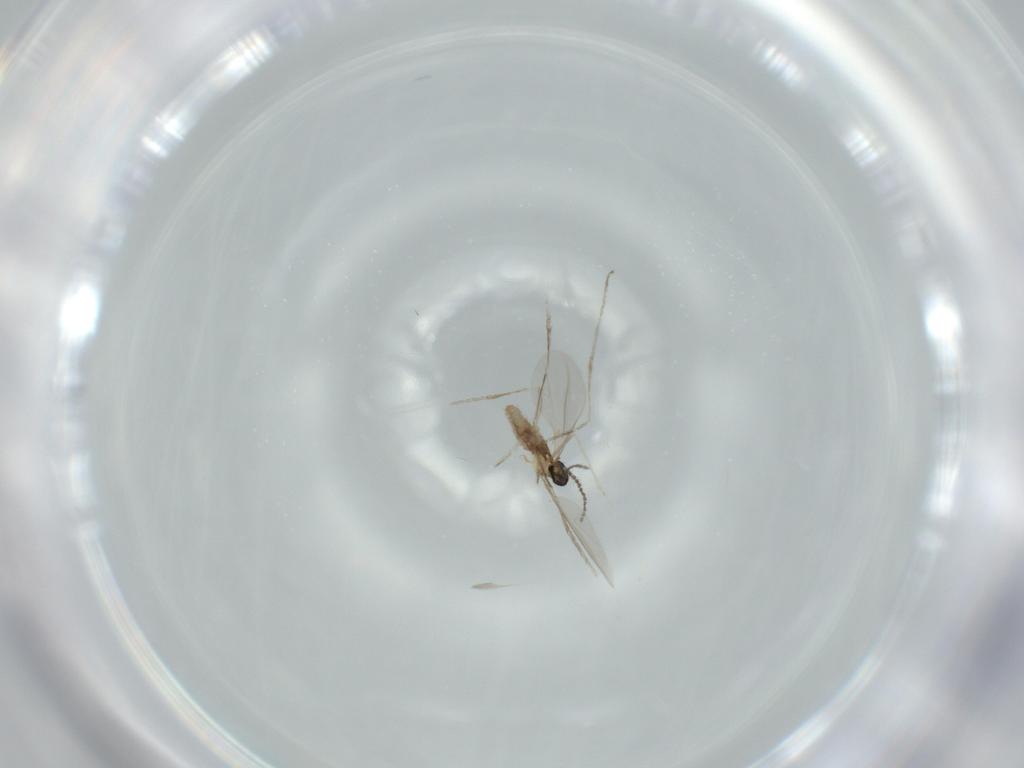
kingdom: Animalia
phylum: Arthropoda
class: Insecta
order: Diptera
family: Cecidomyiidae
